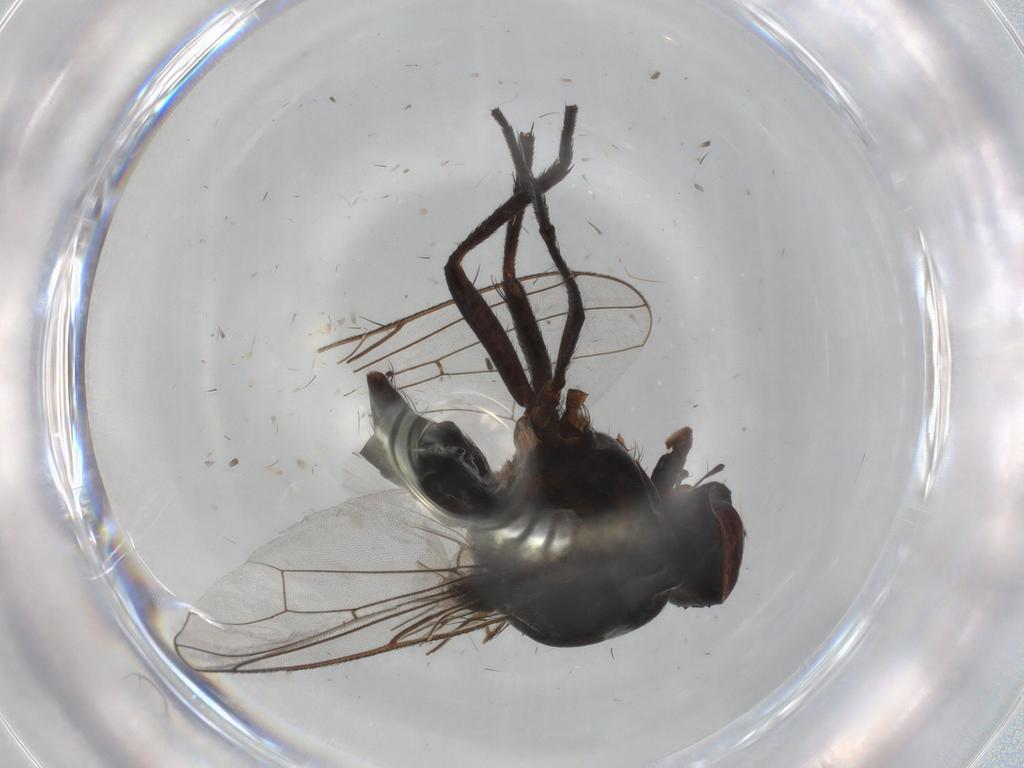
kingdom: Animalia
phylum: Arthropoda
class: Insecta
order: Diptera
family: Anthomyiidae
